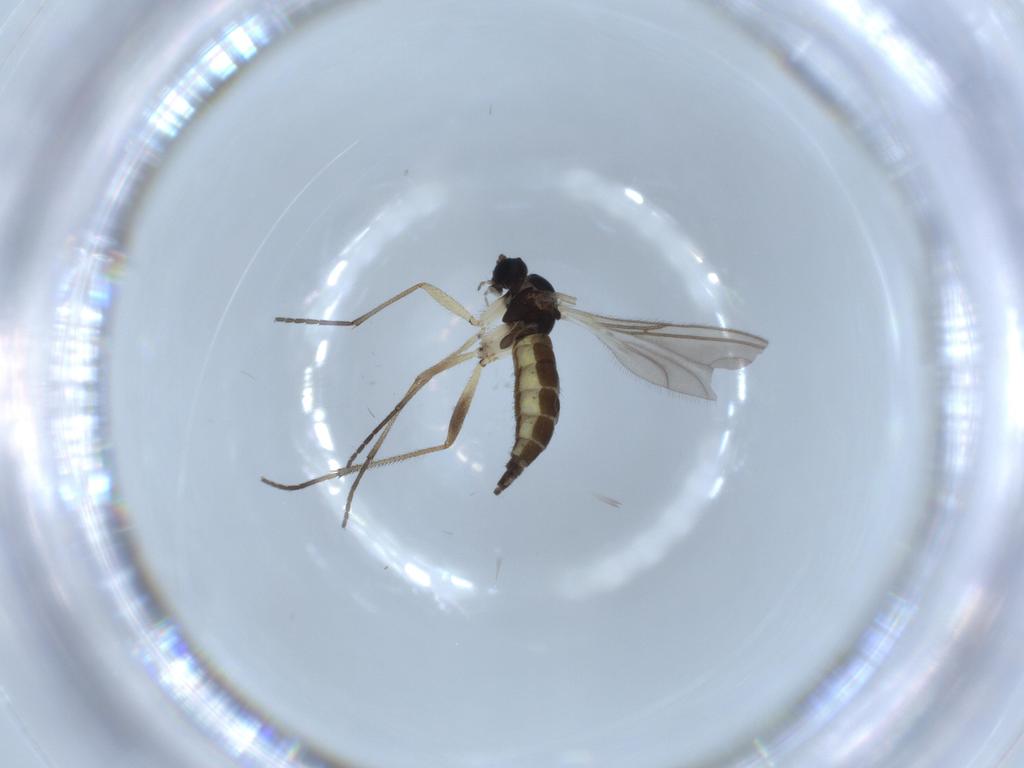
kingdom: Animalia
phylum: Arthropoda
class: Insecta
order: Diptera
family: Sciaridae
